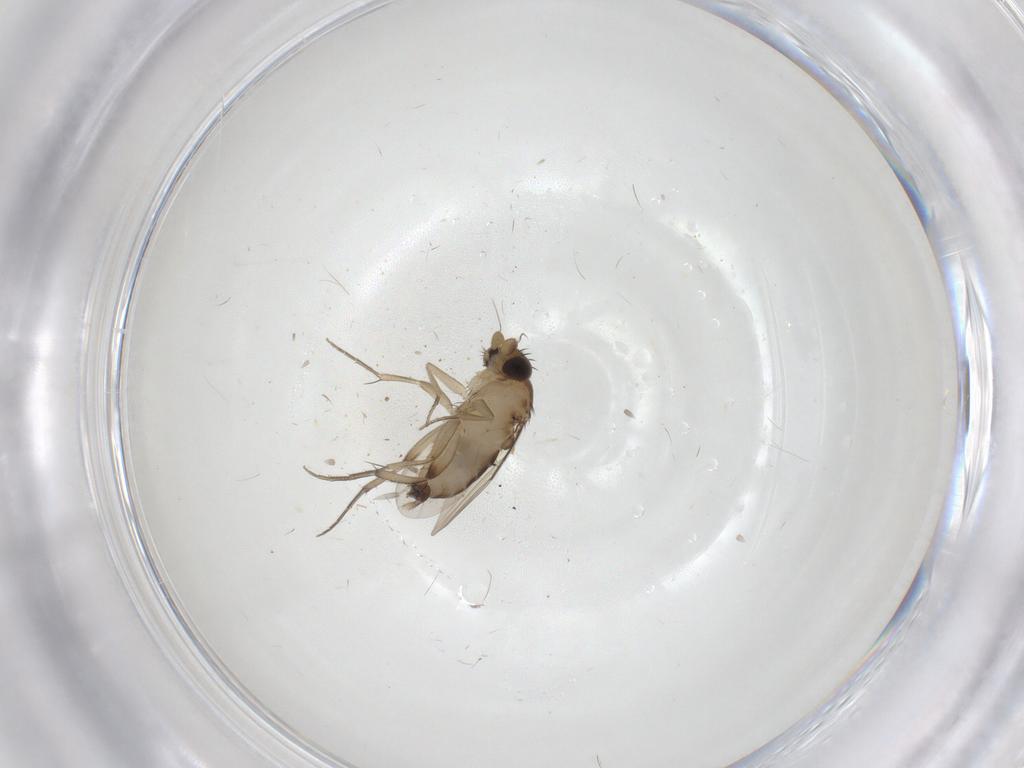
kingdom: Animalia
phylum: Arthropoda
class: Insecta
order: Diptera
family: Phoridae
